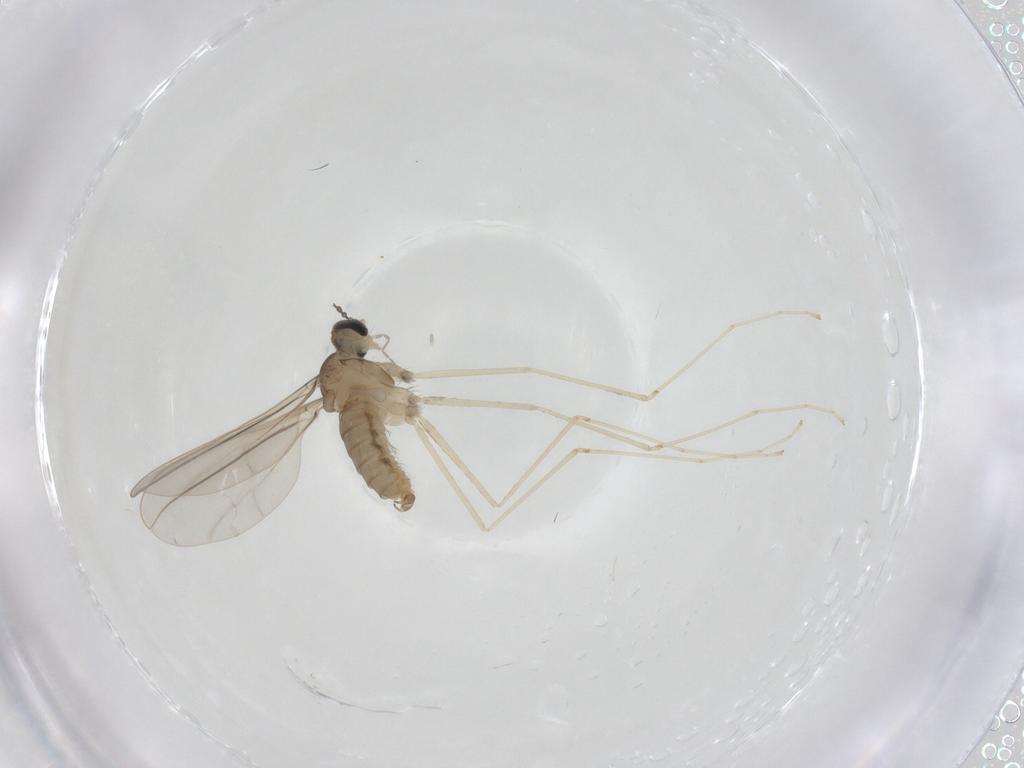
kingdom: Animalia
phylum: Arthropoda
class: Insecta
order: Diptera
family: Cecidomyiidae
